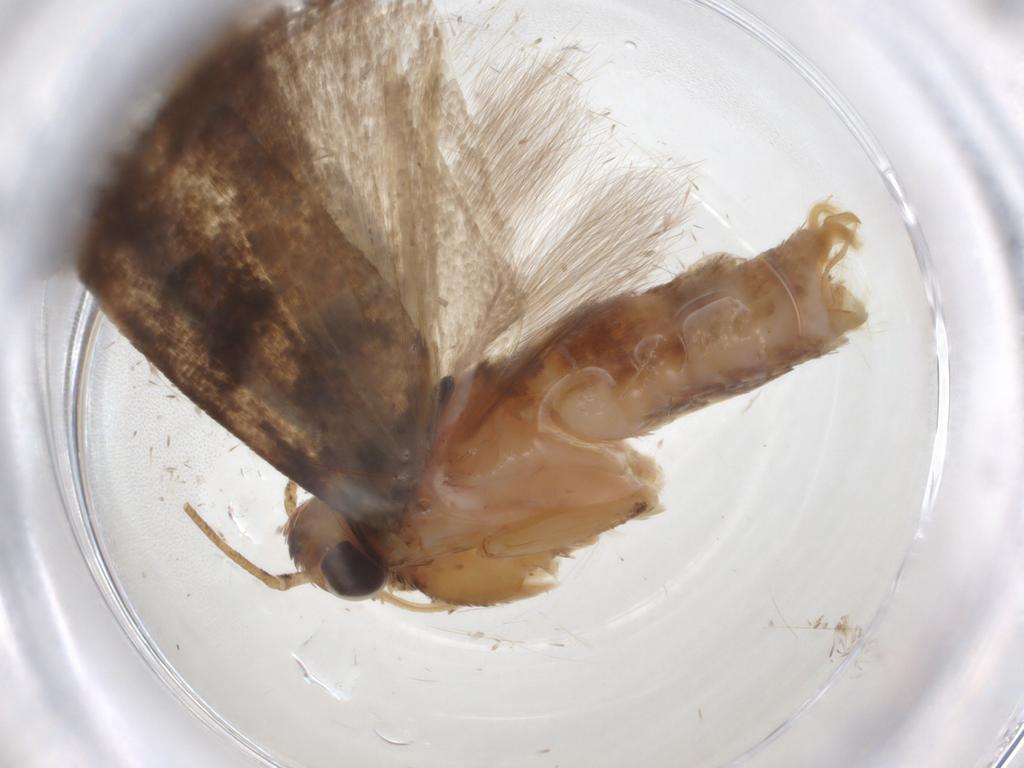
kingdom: Animalia
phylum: Arthropoda
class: Insecta
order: Lepidoptera
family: Gelechiidae
